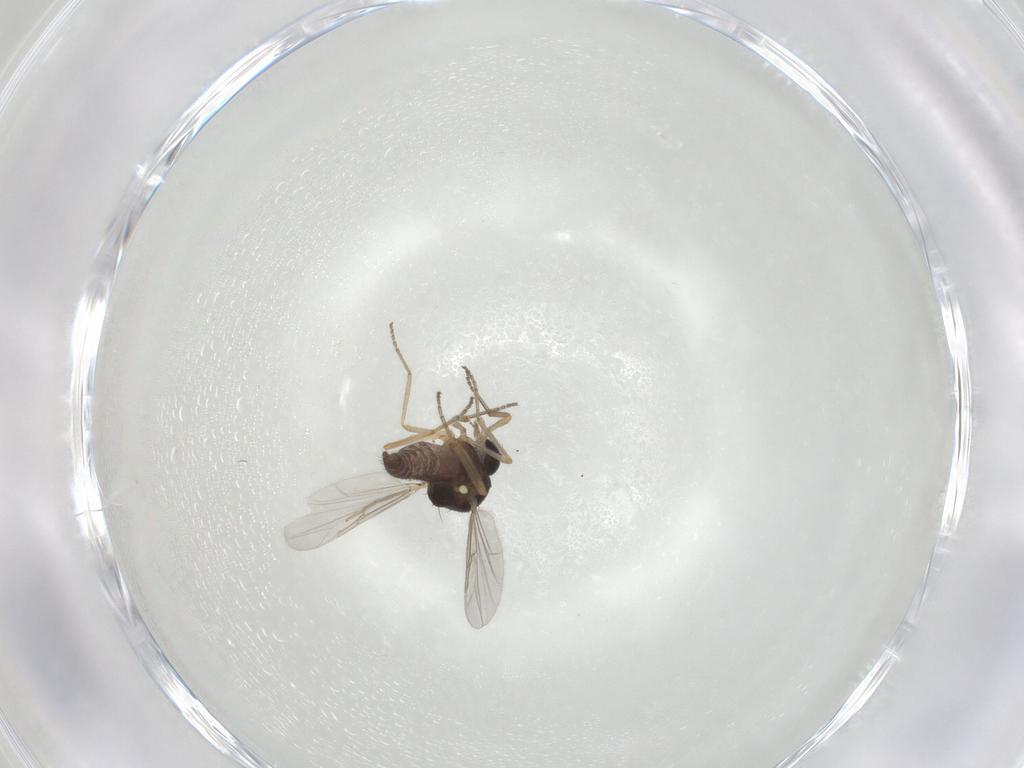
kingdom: Animalia
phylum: Arthropoda
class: Insecta
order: Diptera
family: Ceratopogonidae
